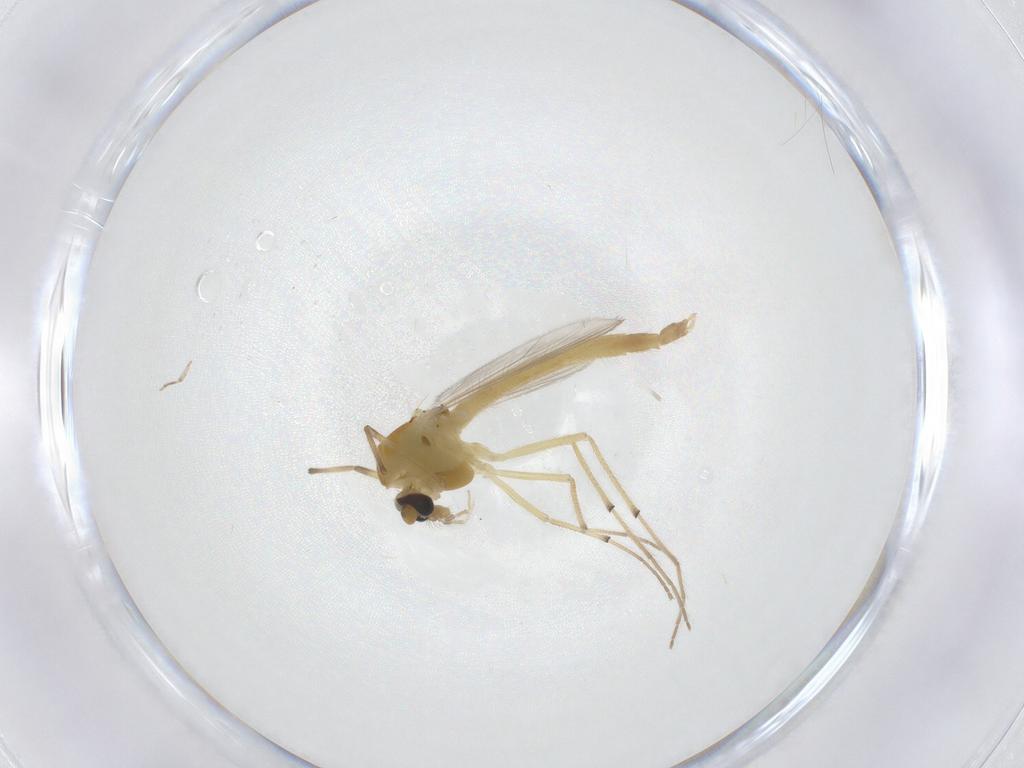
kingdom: Animalia
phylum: Arthropoda
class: Insecta
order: Diptera
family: Chironomidae
